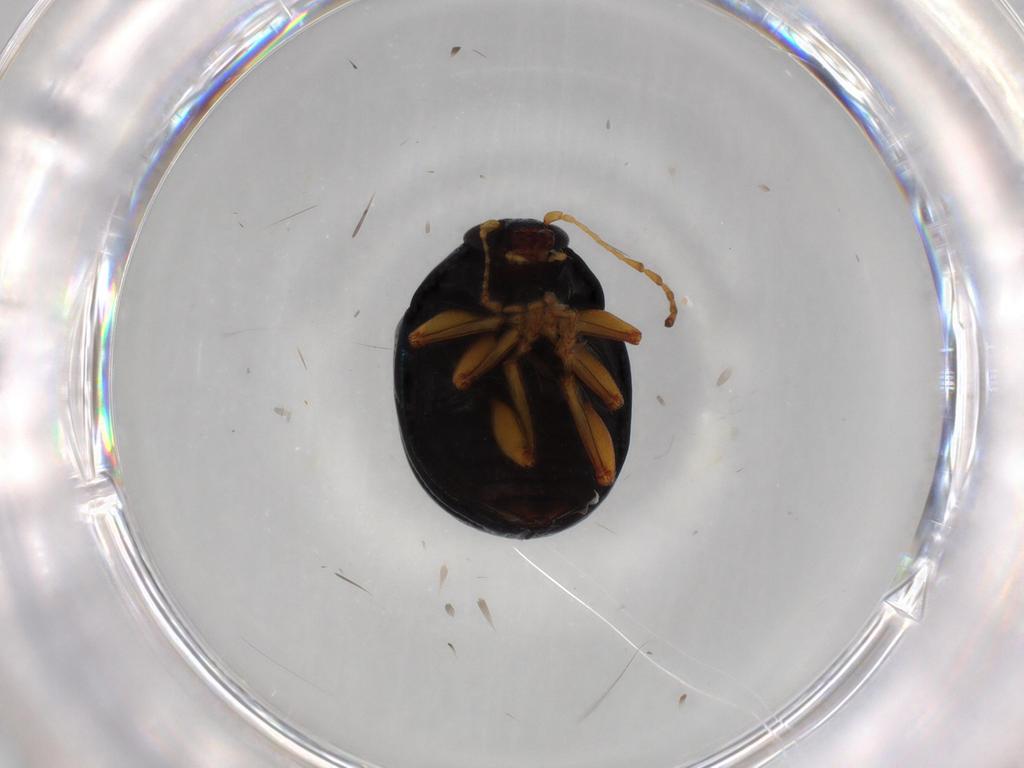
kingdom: Animalia
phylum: Arthropoda
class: Insecta
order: Coleoptera
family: Chrysomelidae
